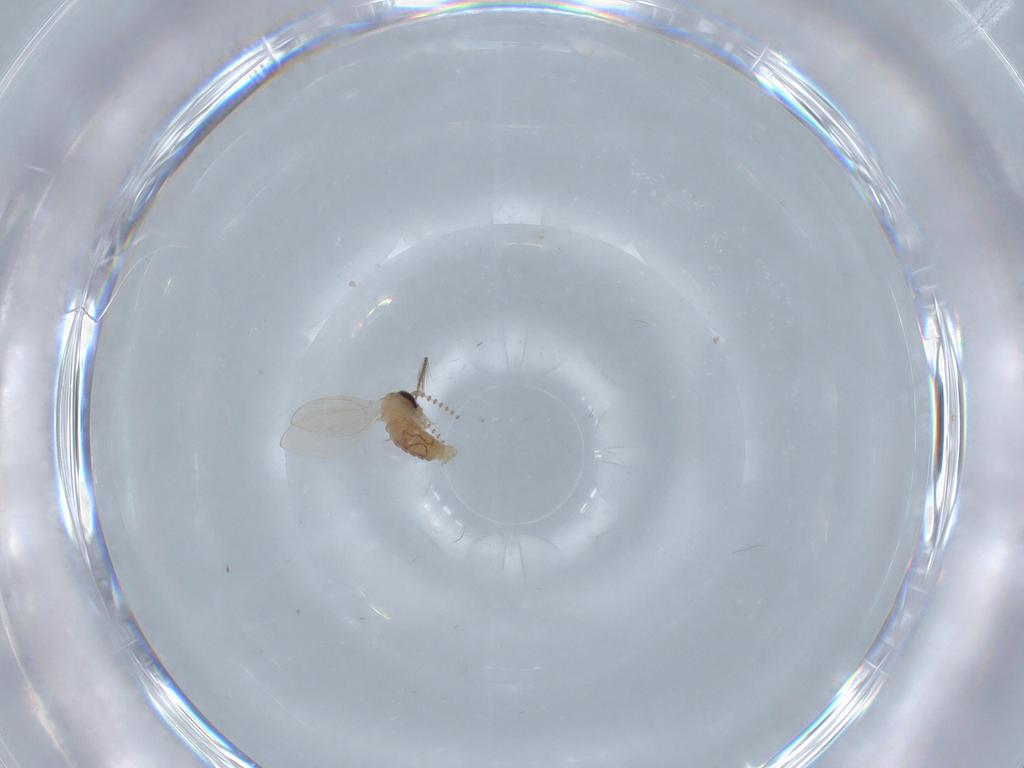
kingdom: Animalia
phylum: Arthropoda
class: Insecta
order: Diptera
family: Psychodidae
